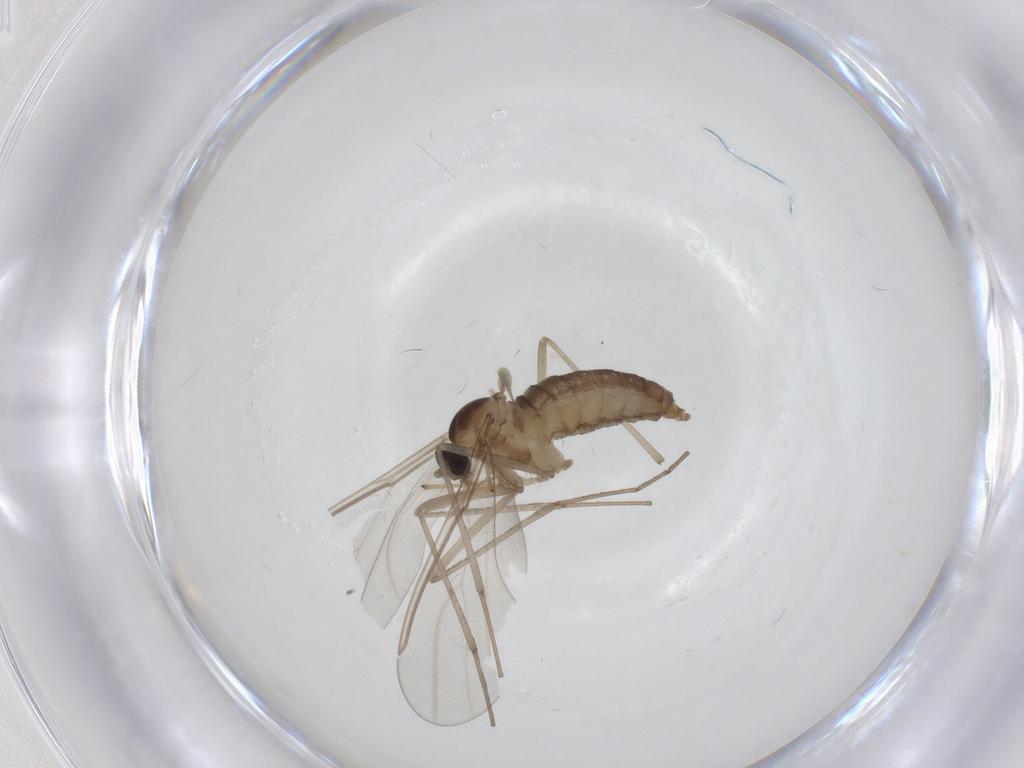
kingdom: Animalia
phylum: Arthropoda
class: Insecta
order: Diptera
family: Cecidomyiidae
